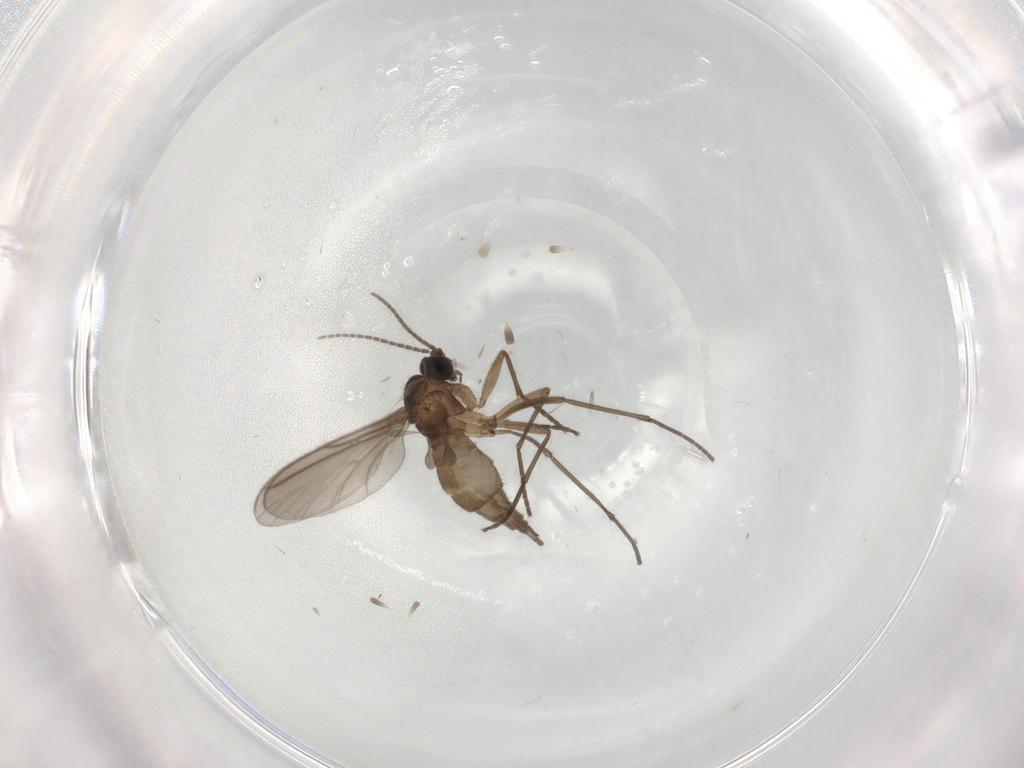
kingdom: Animalia
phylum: Arthropoda
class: Insecta
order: Diptera
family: Sciaridae
